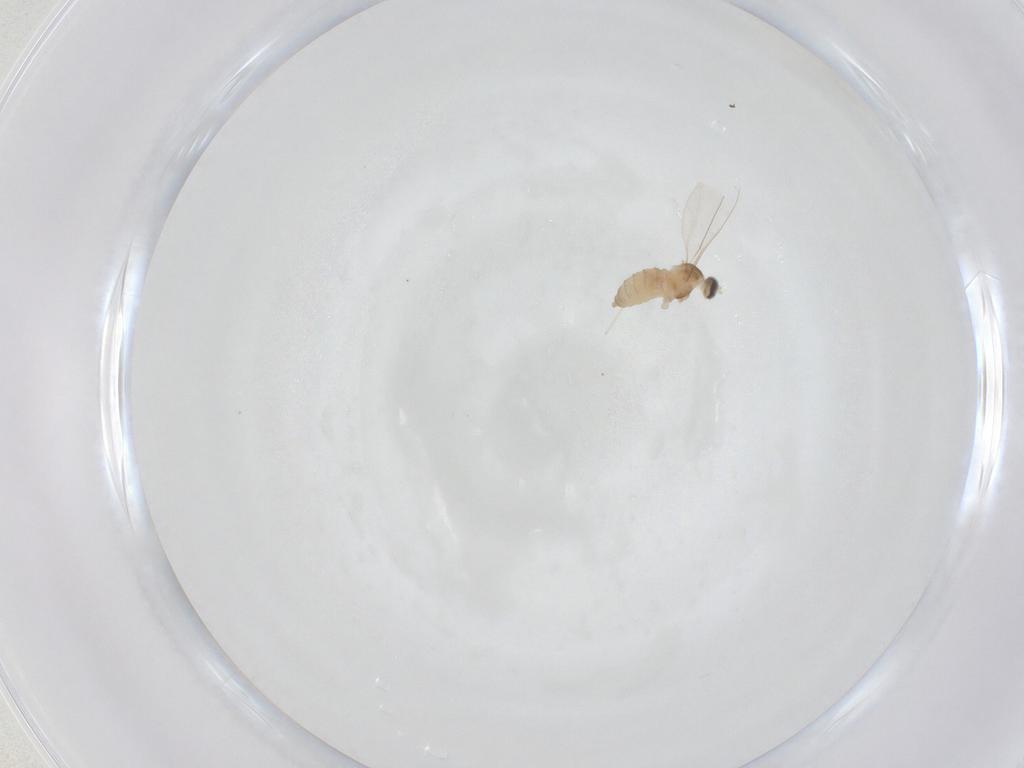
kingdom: Animalia
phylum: Arthropoda
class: Insecta
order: Diptera
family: Cecidomyiidae
